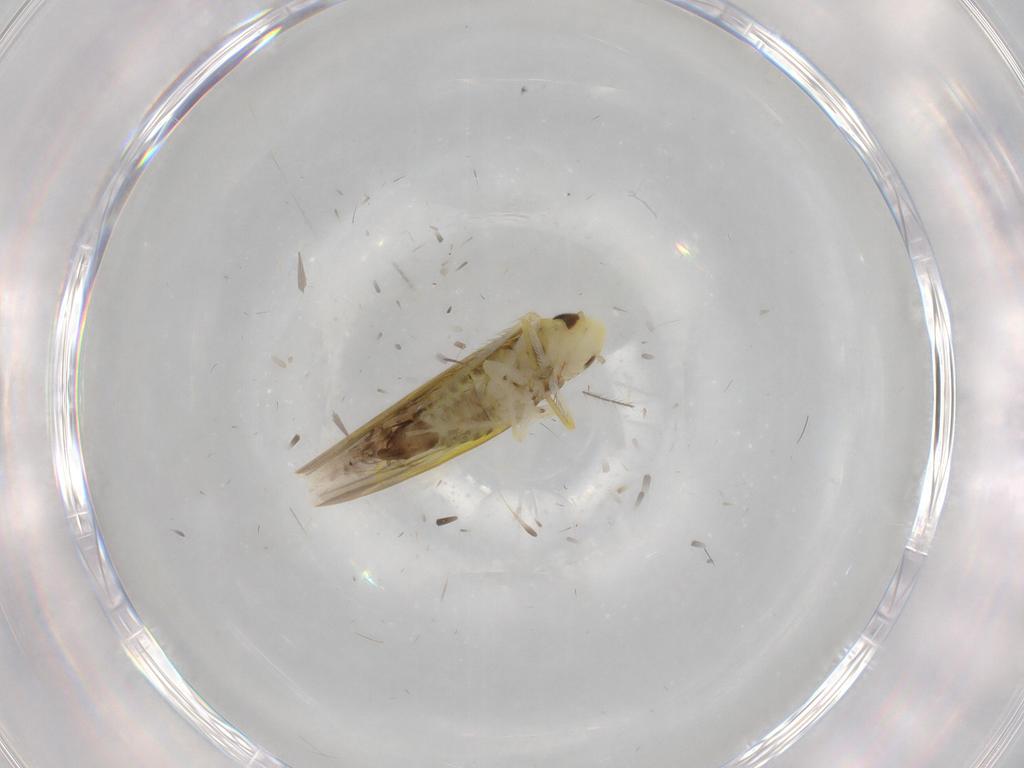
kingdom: Animalia
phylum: Arthropoda
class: Insecta
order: Hemiptera
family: Cicadellidae
